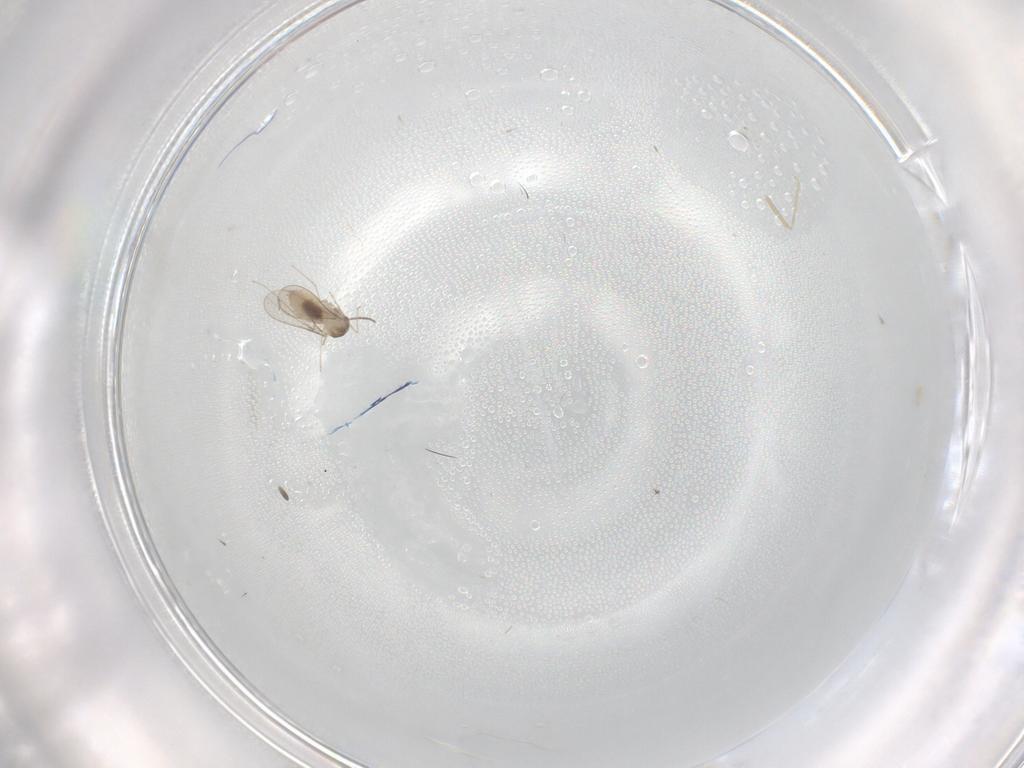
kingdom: Animalia
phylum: Arthropoda
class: Insecta
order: Diptera
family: Cecidomyiidae
